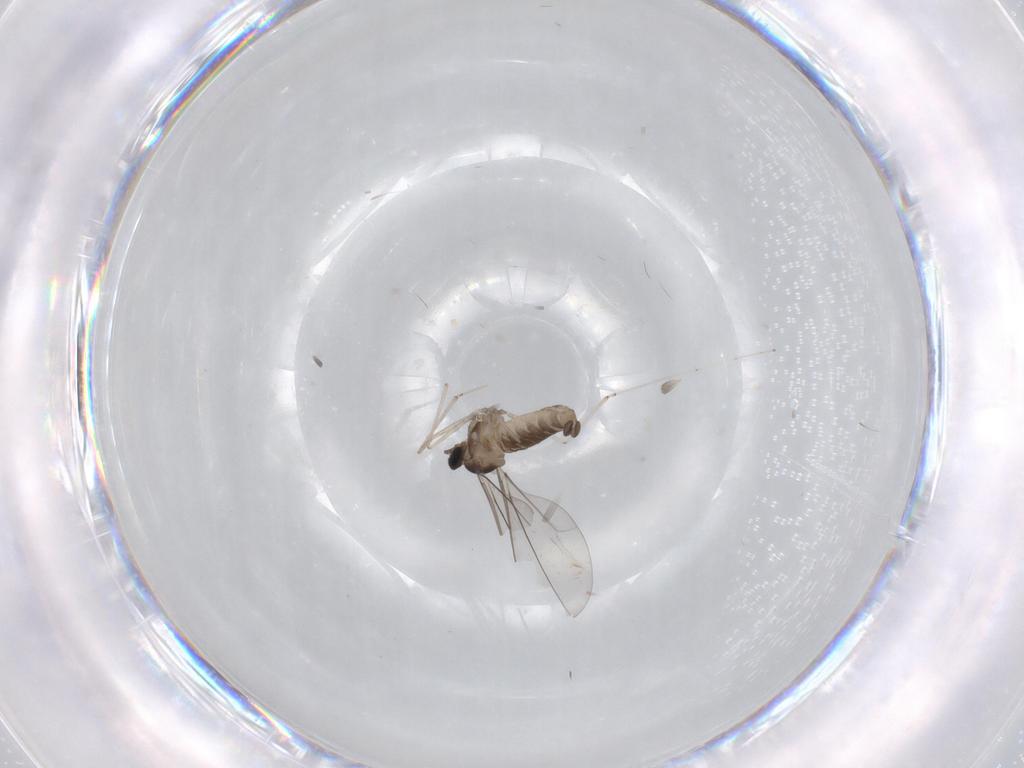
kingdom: Animalia
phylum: Arthropoda
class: Insecta
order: Diptera
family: Cecidomyiidae
